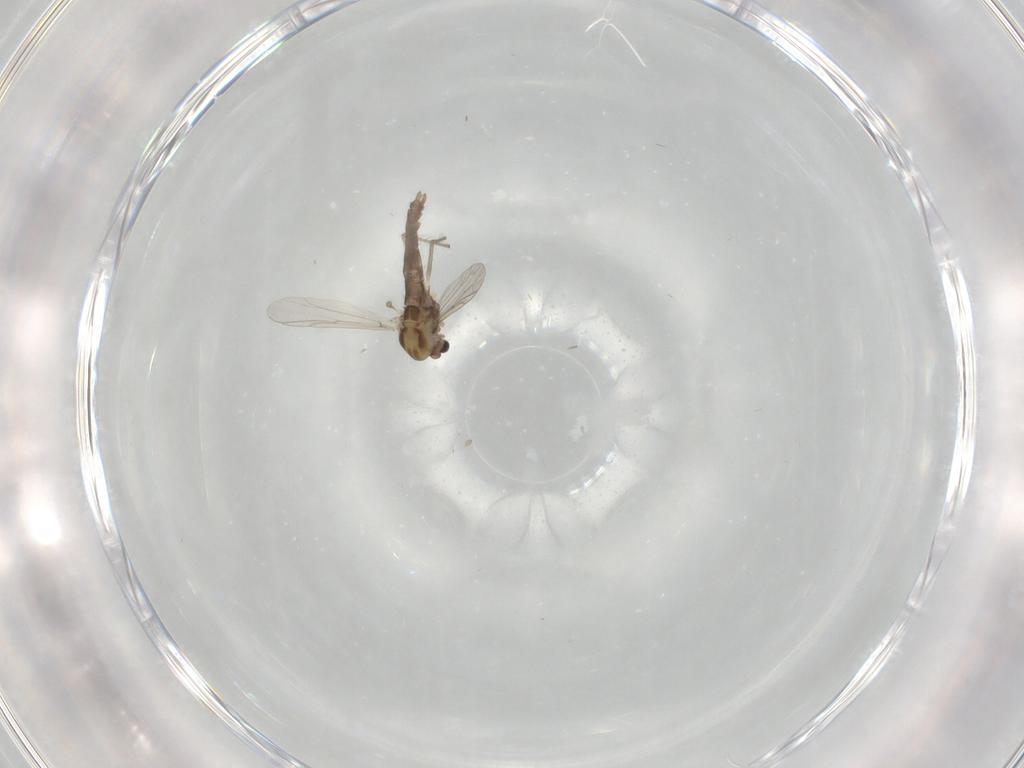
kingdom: Animalia
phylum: Arthropoda
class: Insecta
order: Diptera
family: Chironomidae
